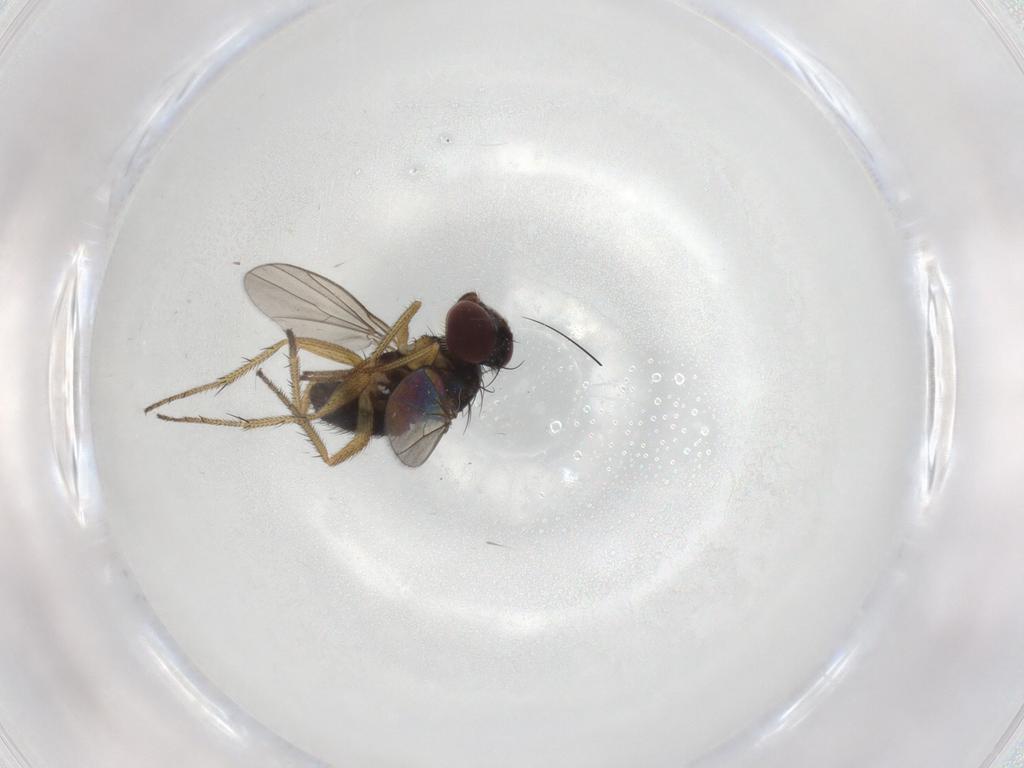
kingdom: Animalia
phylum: Arthropoda
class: Insecta
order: Diptera
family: Dolichopodidae
